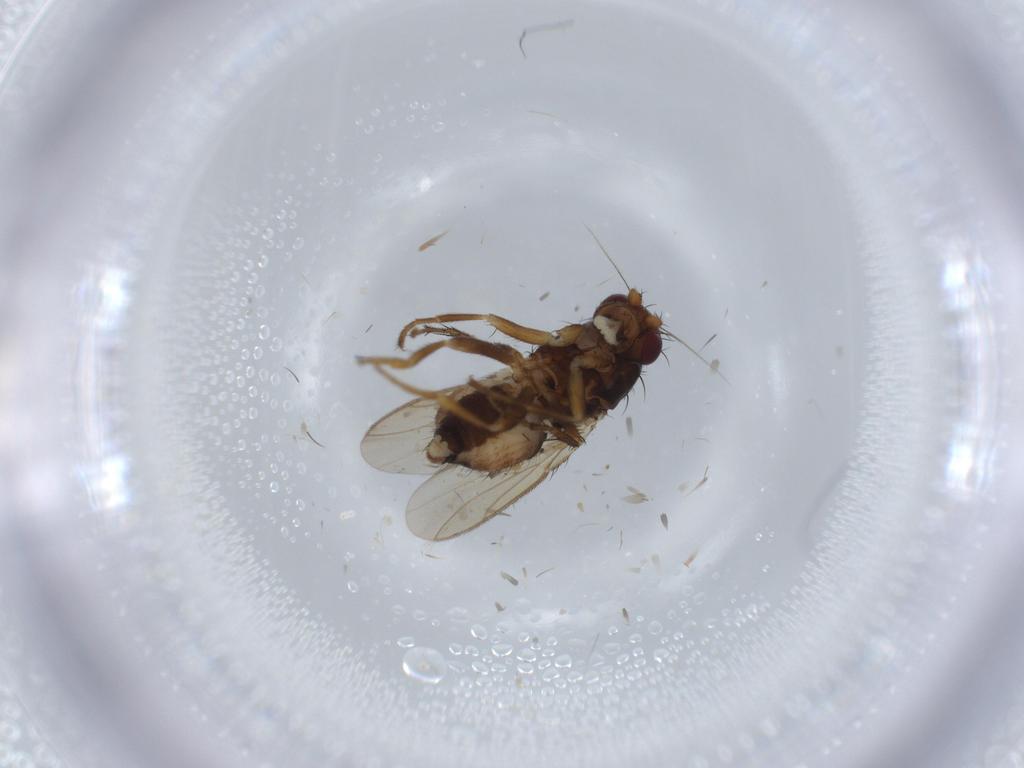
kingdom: Animalia
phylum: Arthropoda
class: Insecta
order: Diptera
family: Sphaeroceridae
